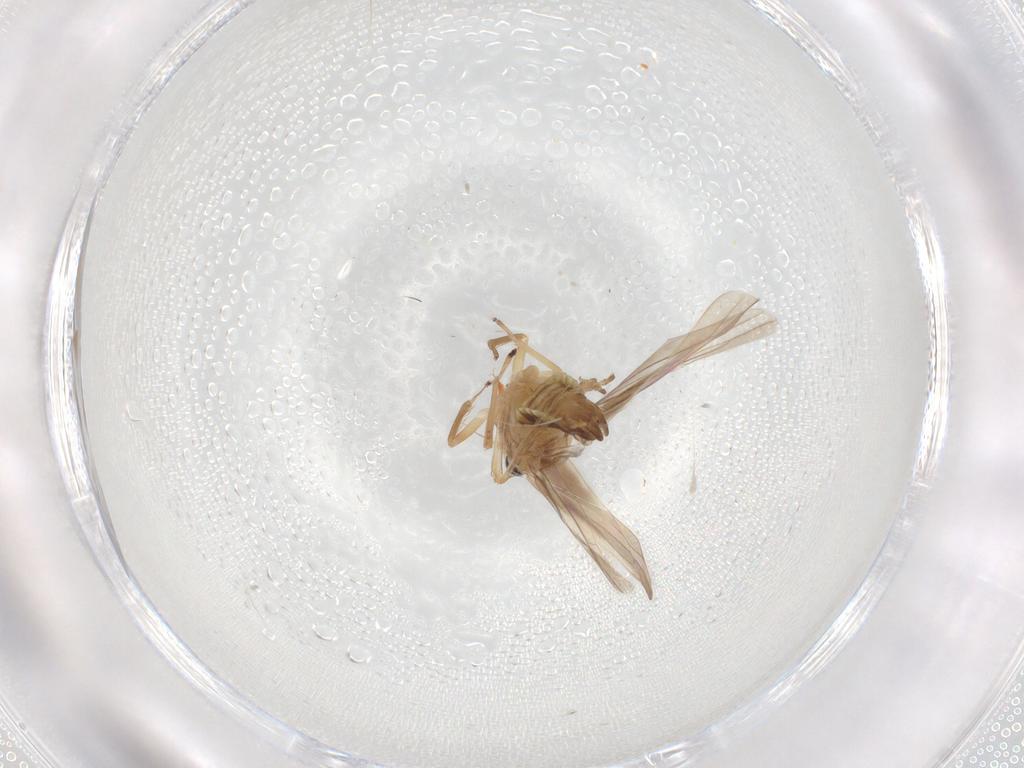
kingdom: Animalia
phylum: Arthropoda
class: Insecta
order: Hemiptera
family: Cicadellidae
